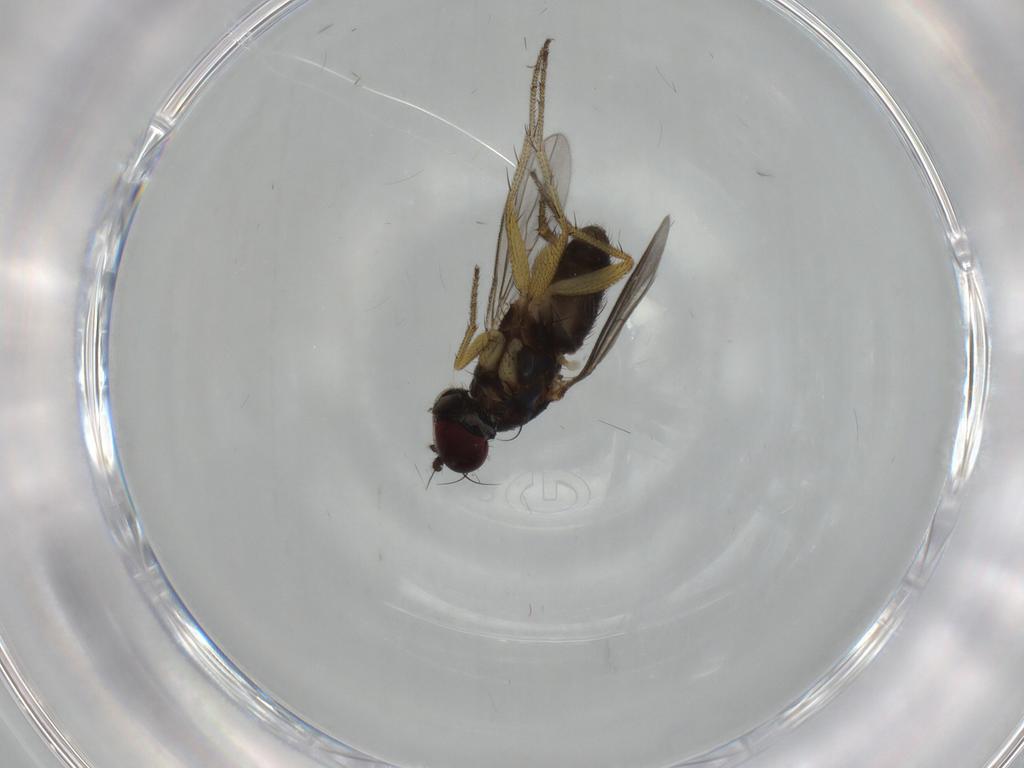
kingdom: Animalia
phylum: Arthropoda
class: Insecta
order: Diptera
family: Dolichopodidae
